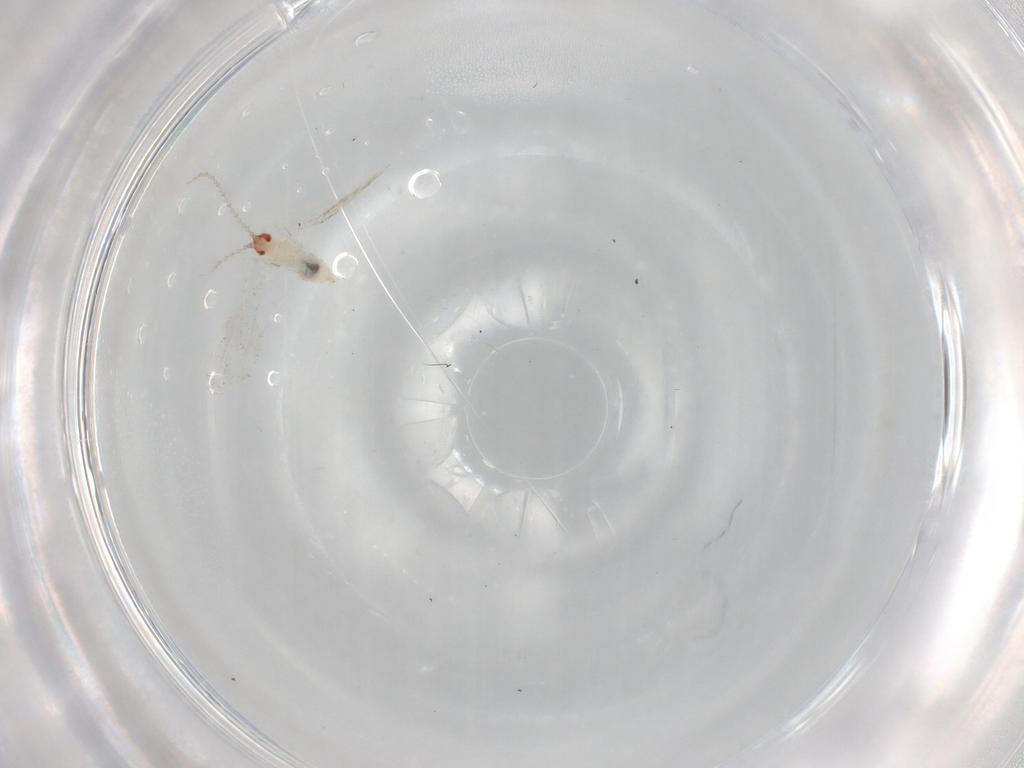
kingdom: Animalia
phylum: Arthropoda
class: Insecta
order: Diptera
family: Cecidomyiidae
